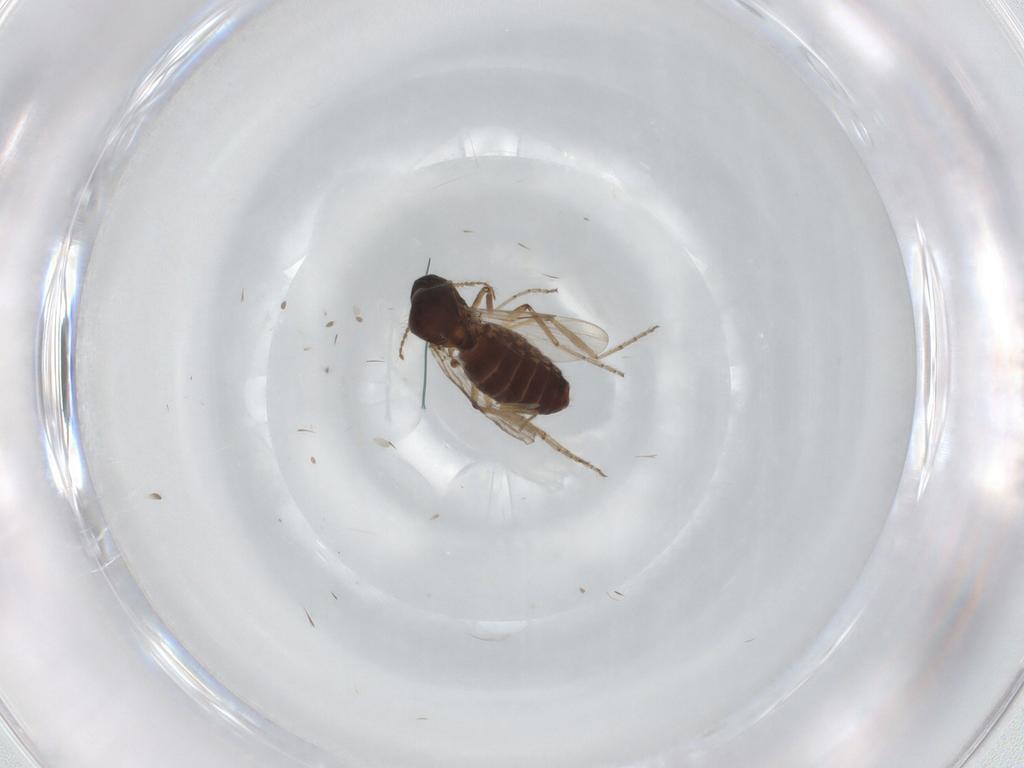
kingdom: Animalia
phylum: Arthropoda
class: Insecta
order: Diptera
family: Ceratopogonidae
